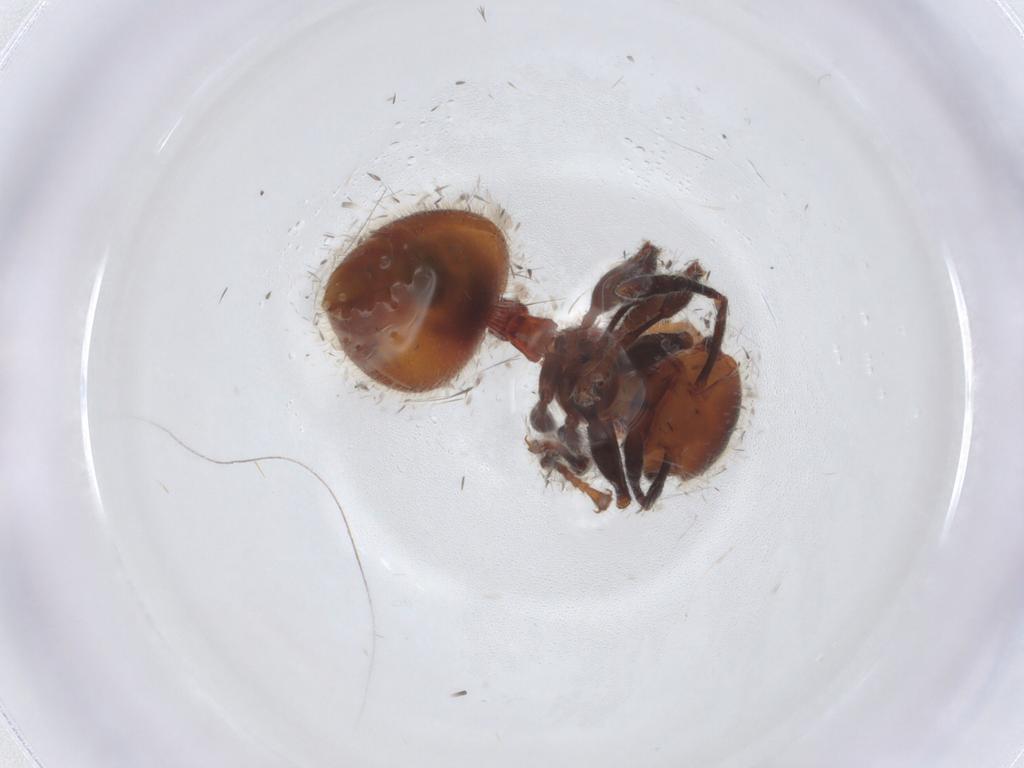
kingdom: Animalia
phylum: Arthropoda
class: Insecta
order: Hymenoptera
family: Formicidae
